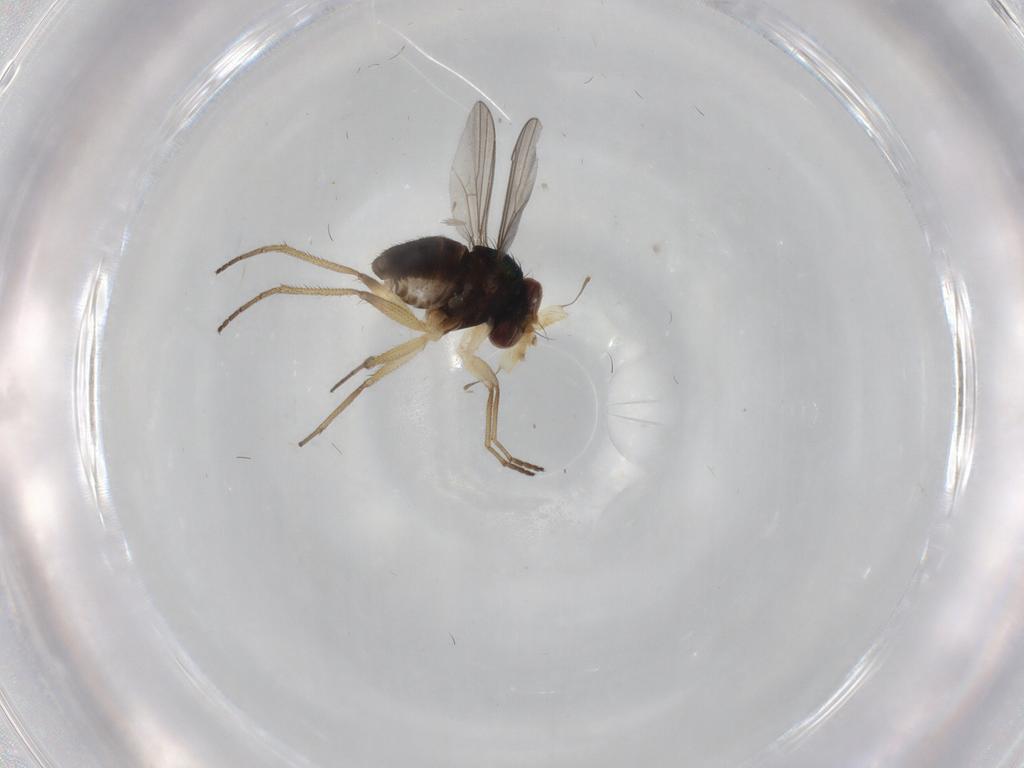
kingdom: Animalia
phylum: Arthropoda
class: Insecta
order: Diptera
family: Dolichopodidae
